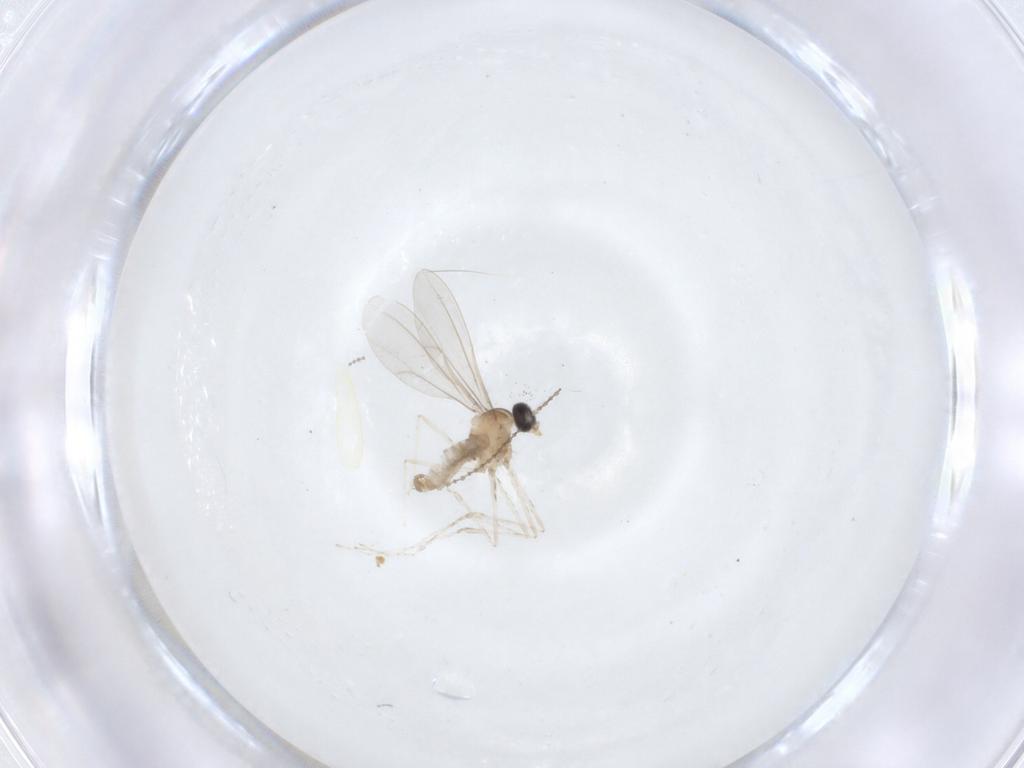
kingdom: Animalia
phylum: Arthropoda
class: Insecta
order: Diptera
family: Cecidomyiidae
